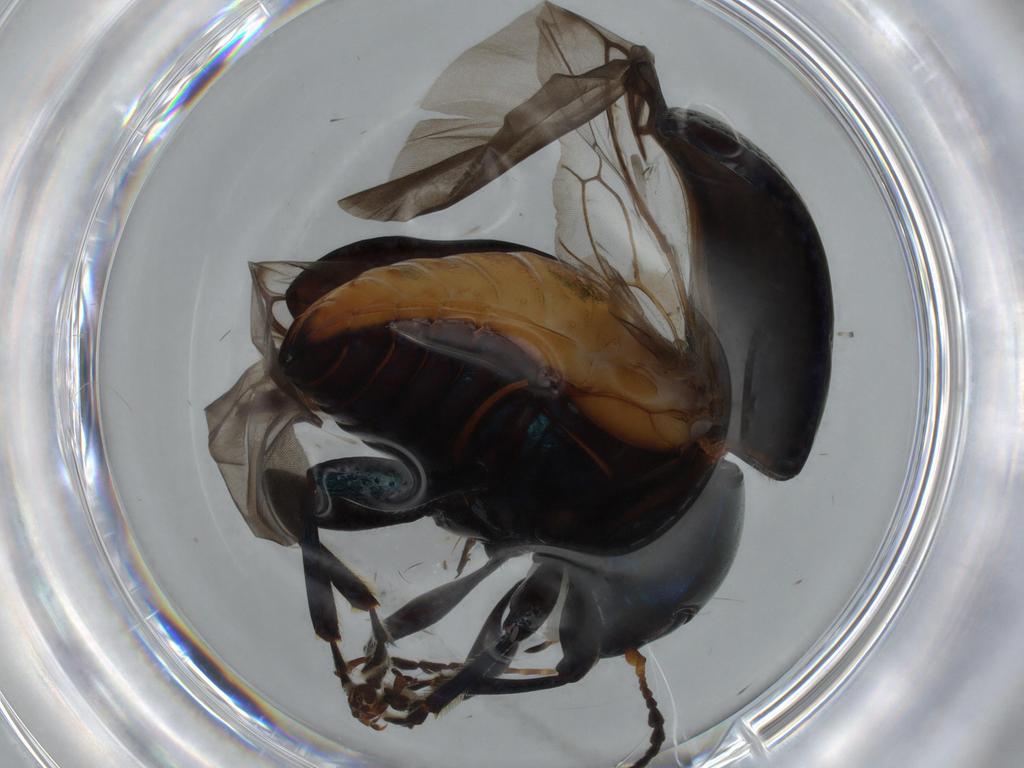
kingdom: Animalia
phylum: Arthropoda
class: Insecta
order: Coleoptera
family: Chrysomelidae
